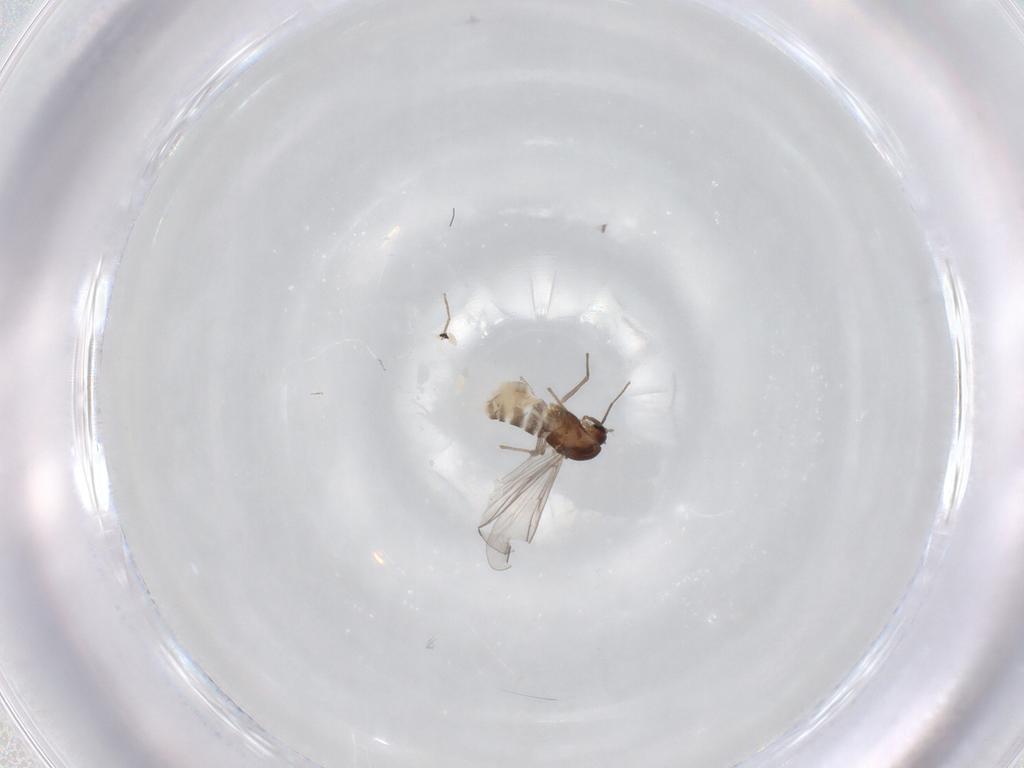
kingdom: Animalia
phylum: Arthropoda
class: Insecta
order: Diptera
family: Chironomidae
